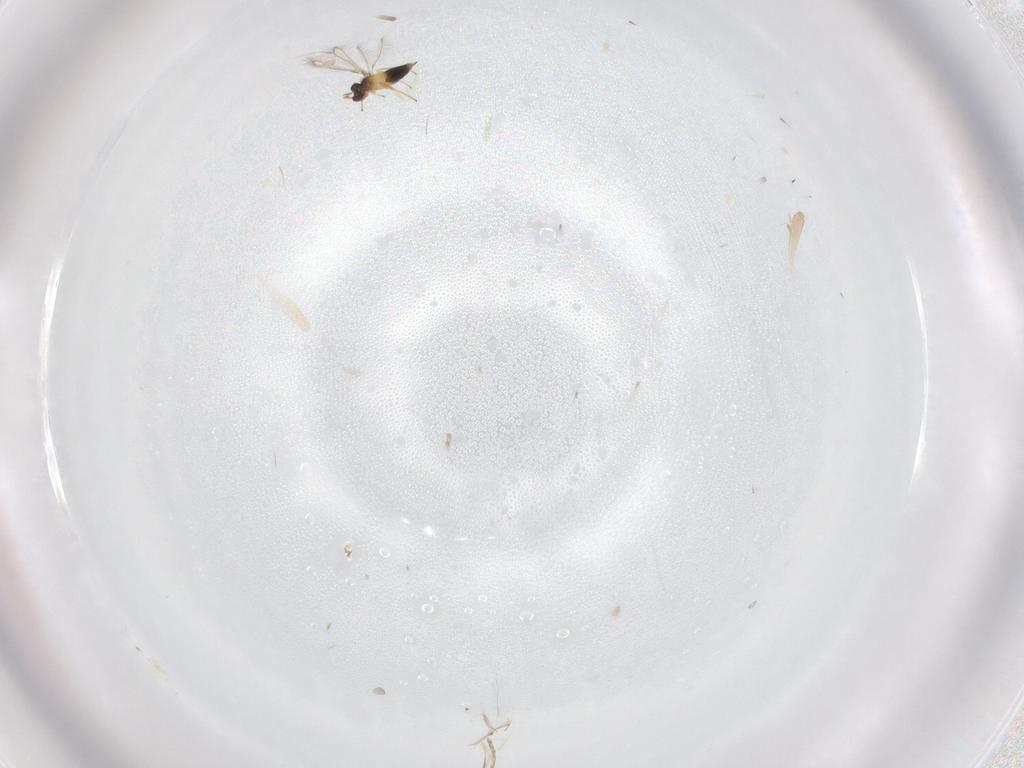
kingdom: Animalia
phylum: Arthropoda
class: Insecta
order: Hymenoptera
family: Mymaridae
